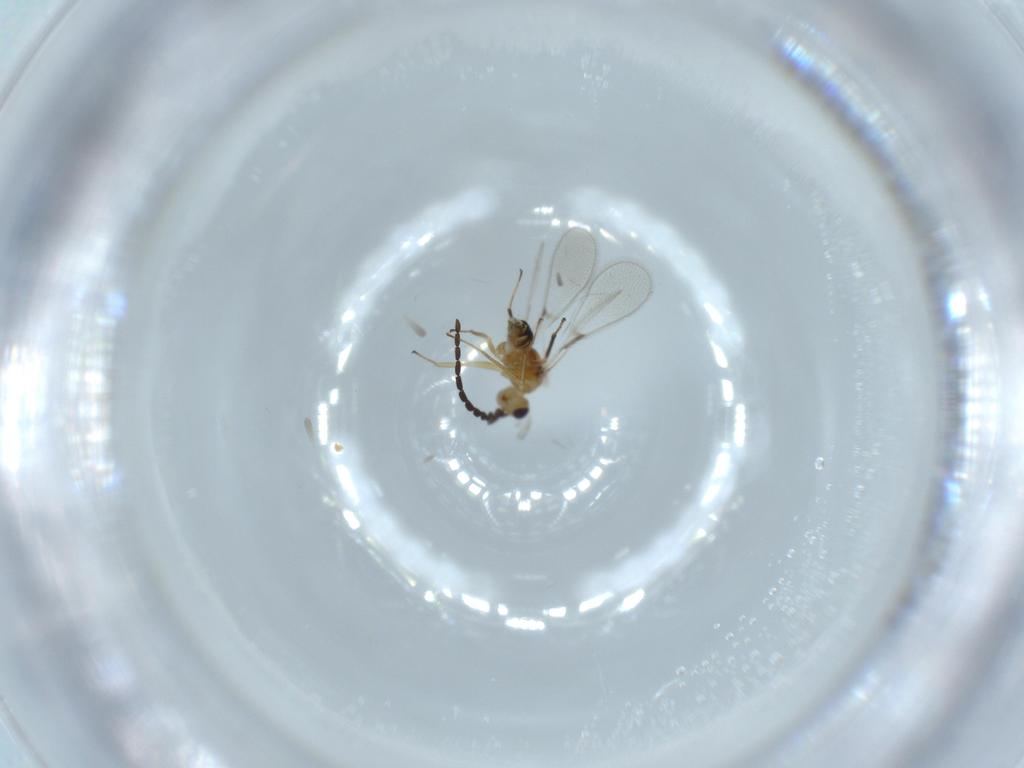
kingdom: Animalia
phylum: Arthropoda
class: Insecta
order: Hymenoptera
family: Mymaridae
